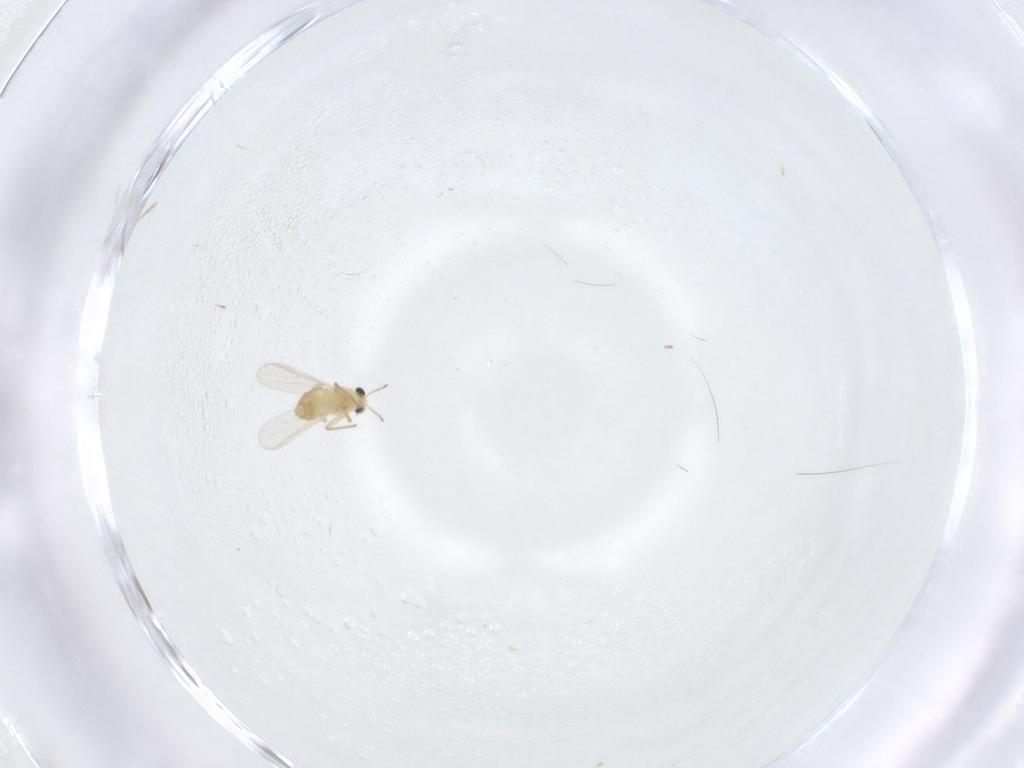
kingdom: Animalia
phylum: Arthropoda
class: Insecta
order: Diptera
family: Chironomidae
